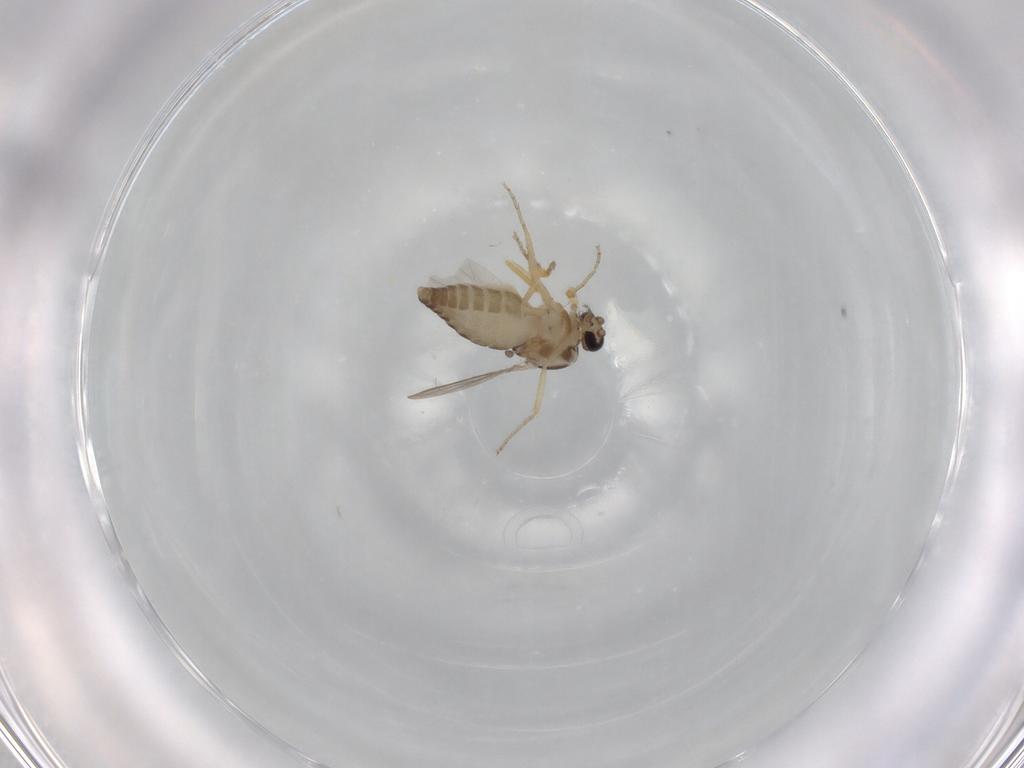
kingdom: Animalia
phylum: Arthropoda
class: Insecta
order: Diptera
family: Ceratopogonidae
